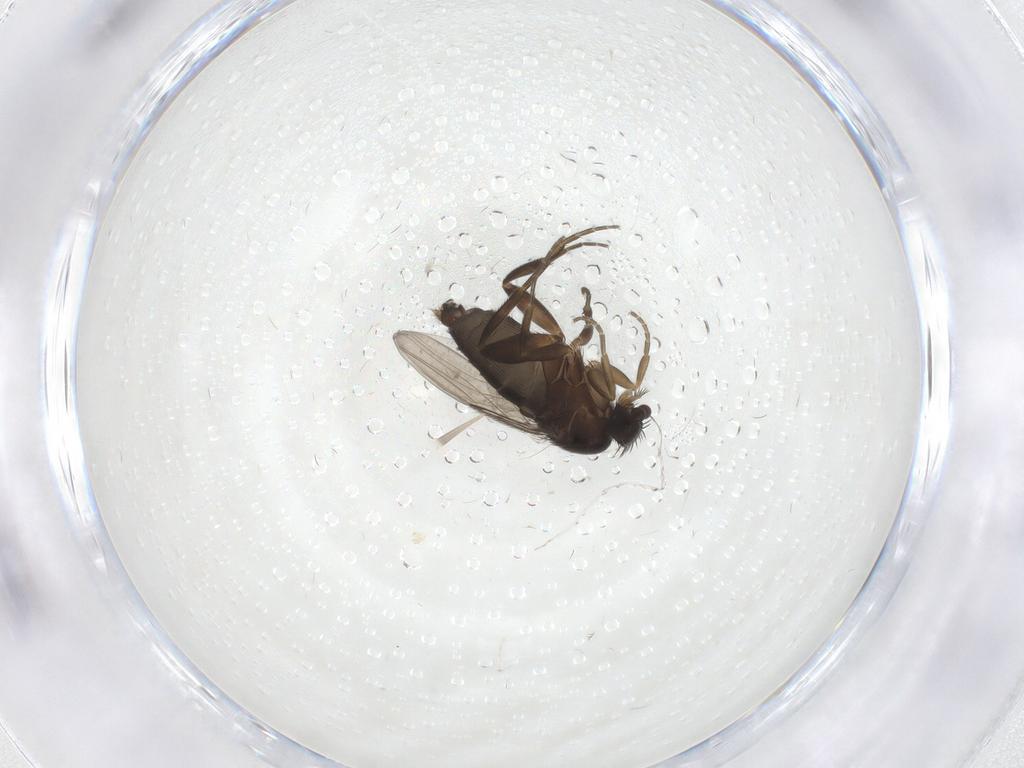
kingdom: Animalia
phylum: Arthropoda
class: Insecta
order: Diptera
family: Phoridae
